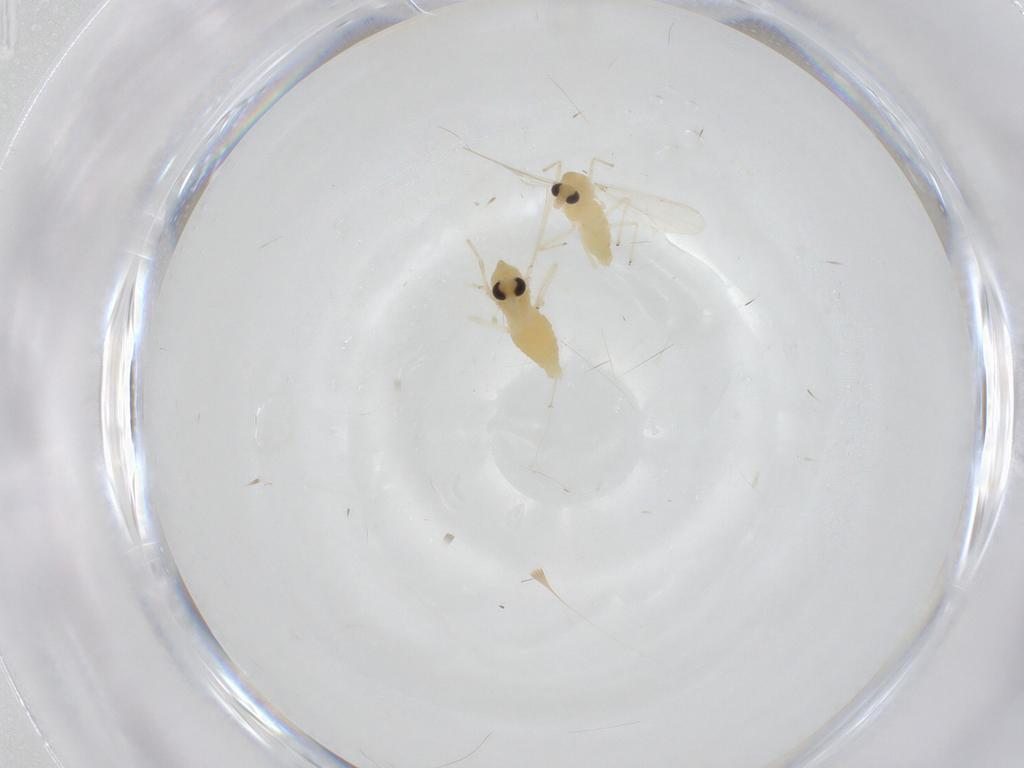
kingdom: Animalia
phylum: Arthropoda
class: Insecta
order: Diptera
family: Chironomidae
